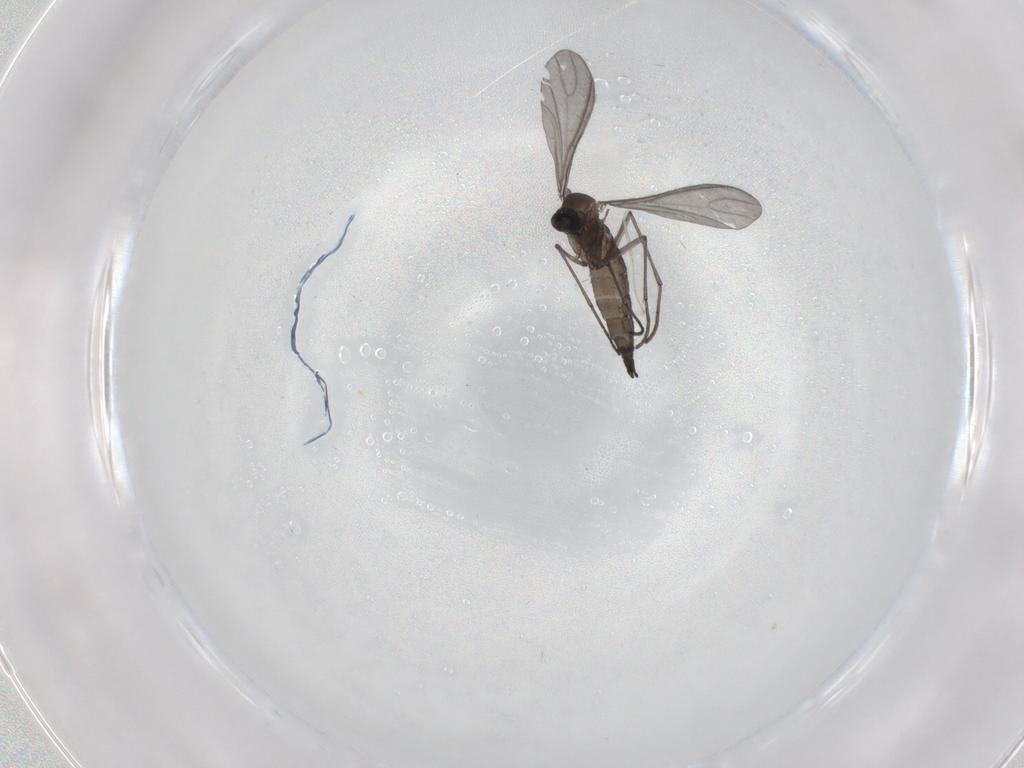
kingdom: Animalia
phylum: Arthropoda
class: Insecta
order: Diptera
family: Sciaridae
